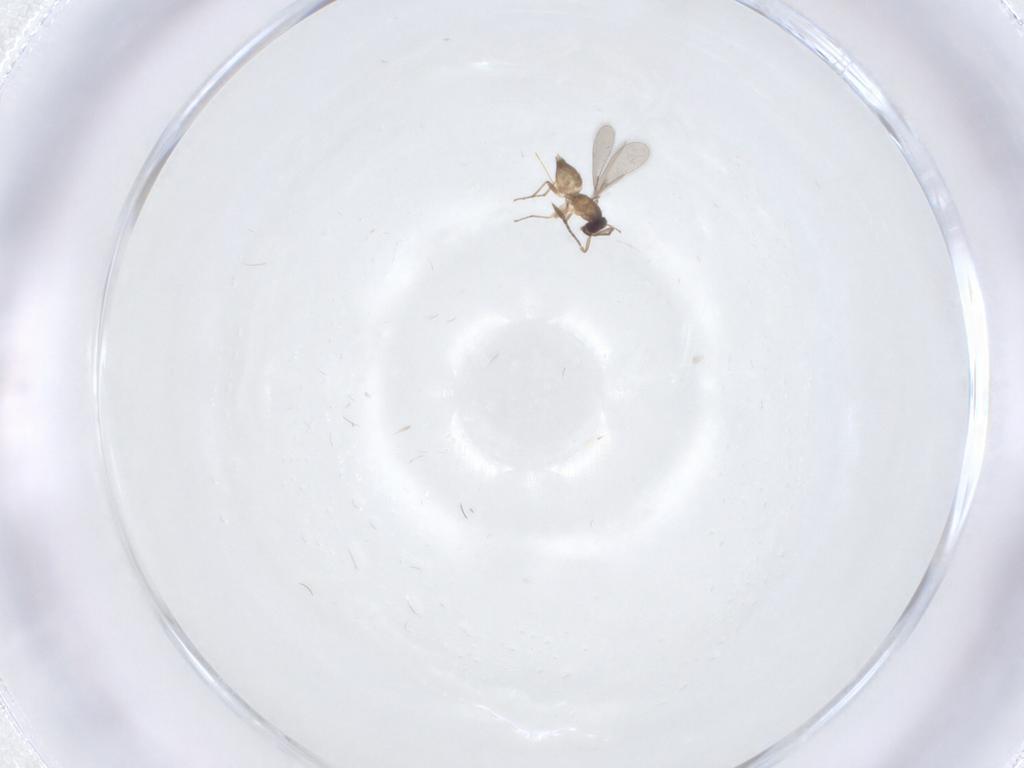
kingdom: Animalia
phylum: Arthropoda
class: Insecta
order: Hymenoptera
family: Mymaridae
